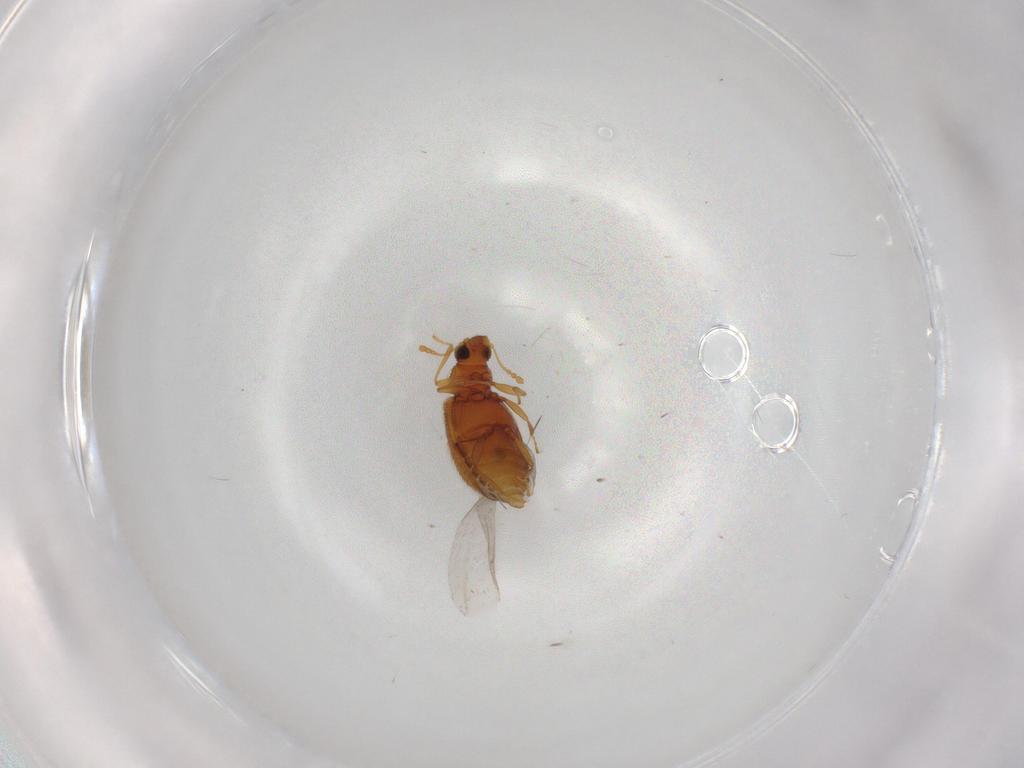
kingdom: Animalia
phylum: Arthropoda
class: Insecta
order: Coleoptera
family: Latridiidae
